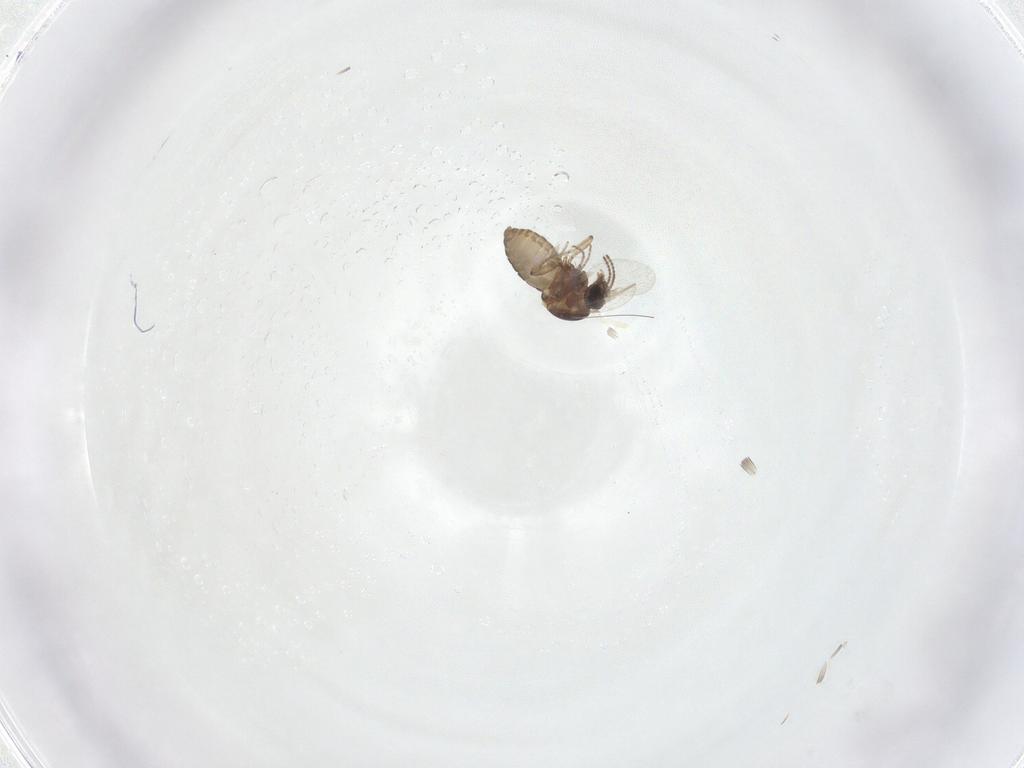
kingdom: Animalia
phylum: Arthropoda
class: Insecta
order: Diptera
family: Ceratopogonidae
